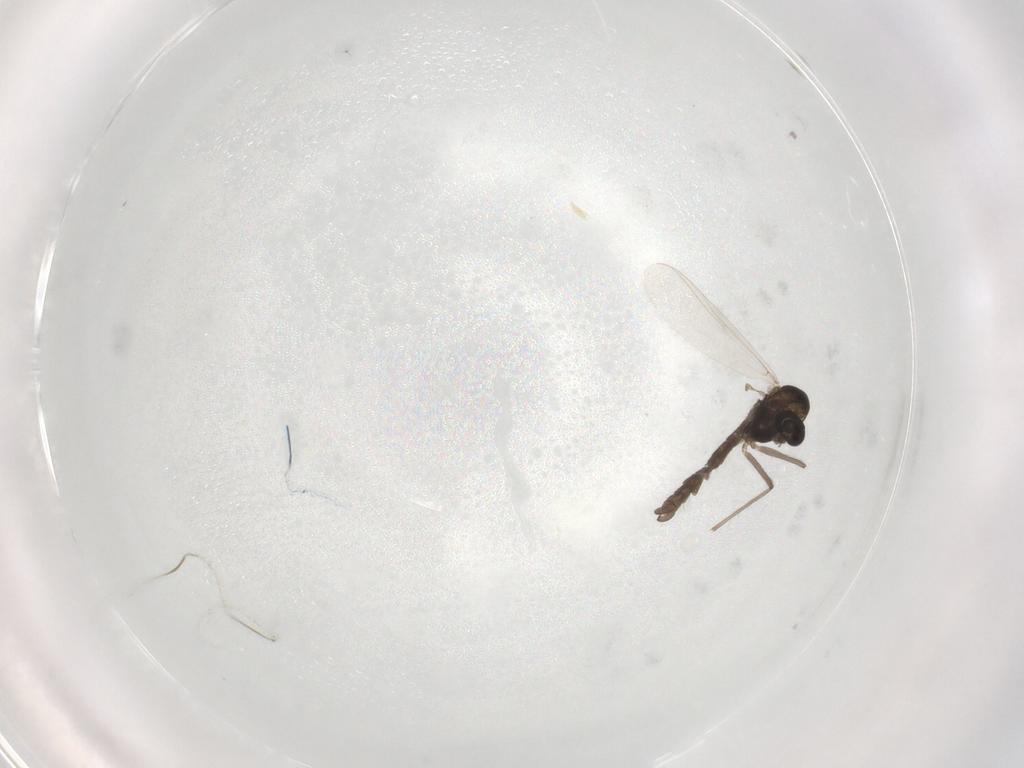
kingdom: Animalia
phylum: Arthropoda
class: Insecta
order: Diptera
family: Chironomidae
